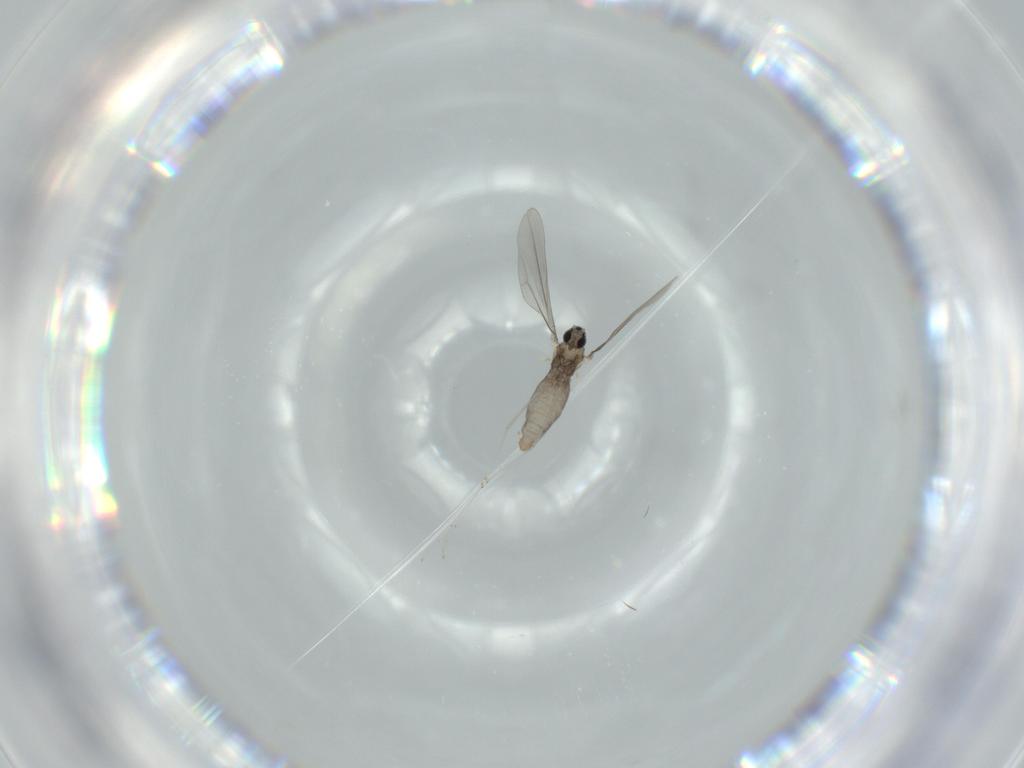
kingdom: Animalia
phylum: Arthropoda
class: Insecta
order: Diptera
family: Cecidomyiidae
